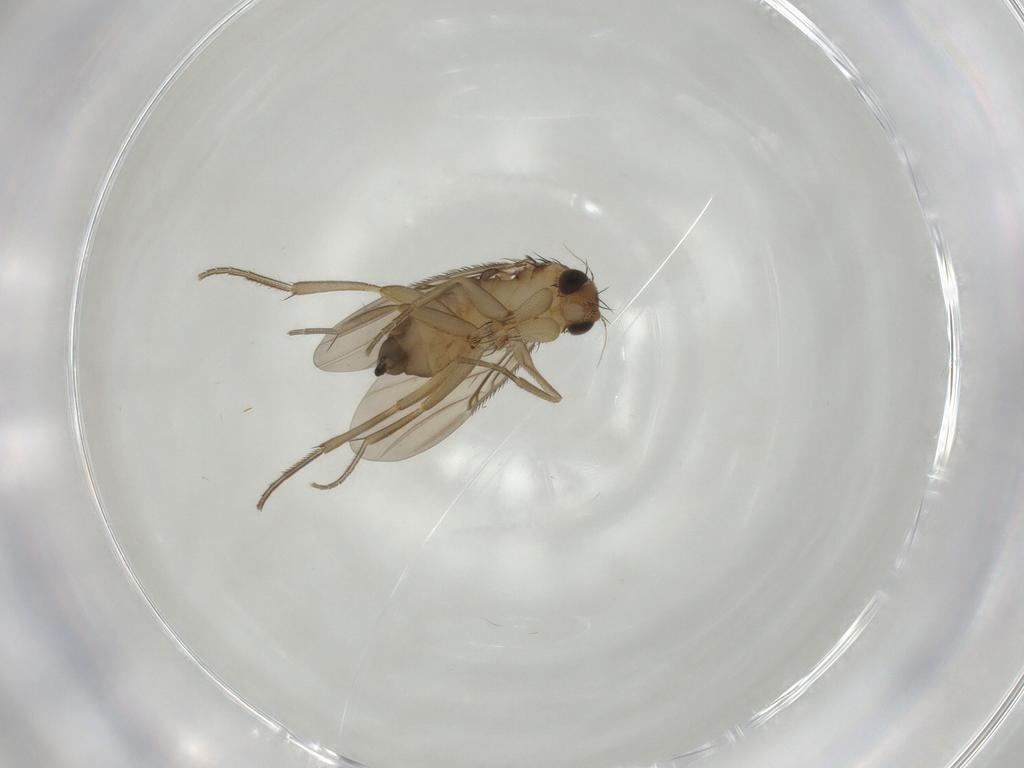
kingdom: Animalia
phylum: Arthropoda
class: Insecta
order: Diptera
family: Phoridae
